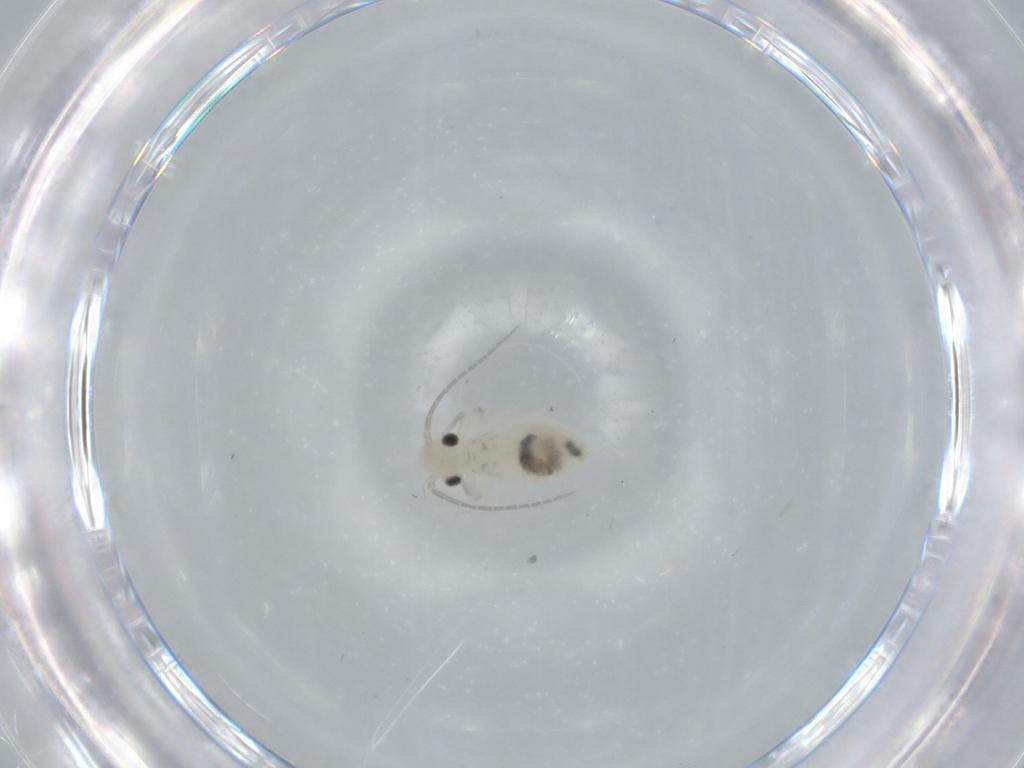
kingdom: Animalia
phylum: Arthropoda
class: Insecta
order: Psocodea
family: Caeciliusidae
